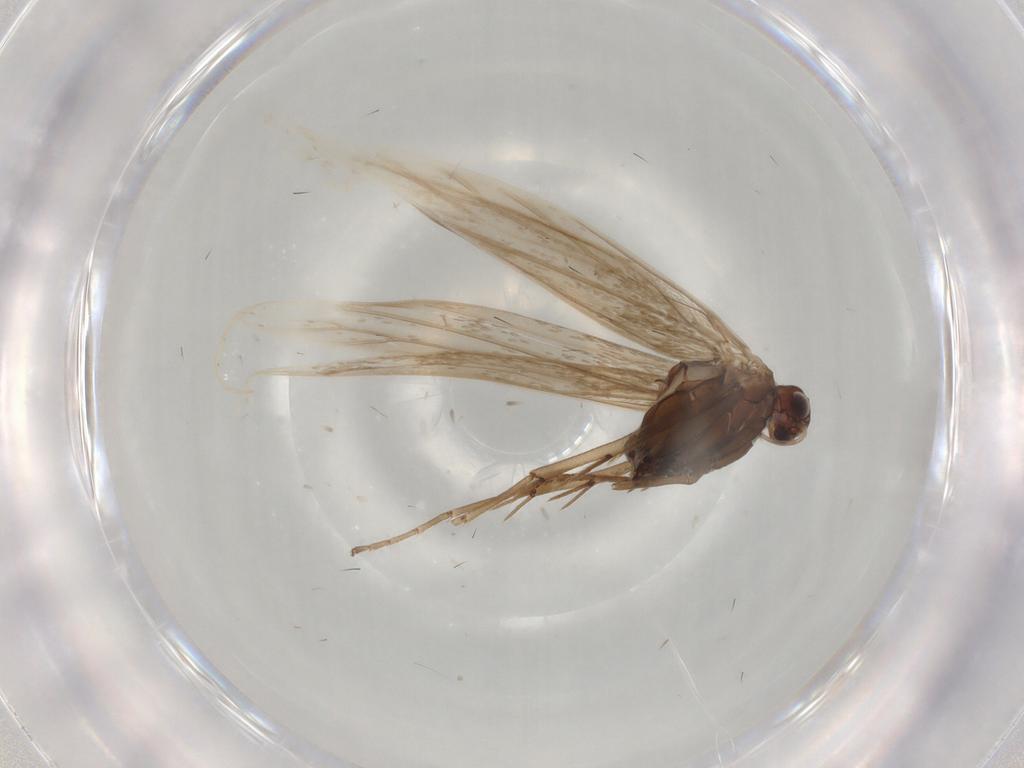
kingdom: Animalia
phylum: Arthropoda
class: Insecta
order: Lepidoptera
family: Coleophoridae
